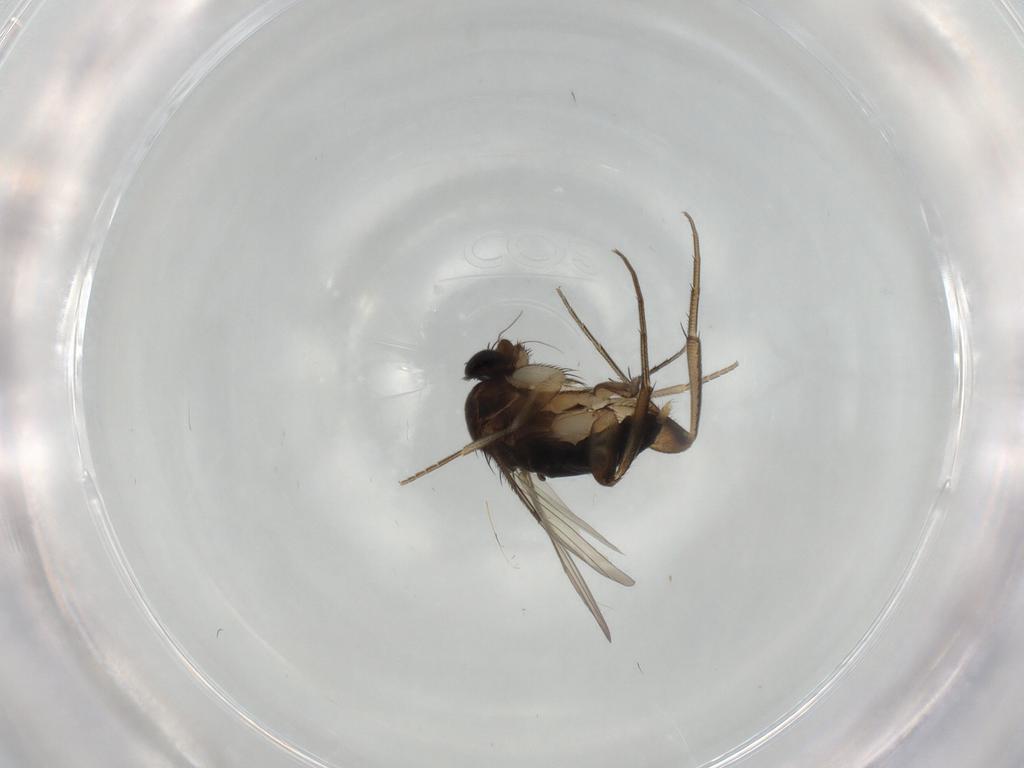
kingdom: Animalia
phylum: Arthropoda
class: Insecta
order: Diptera
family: Phoridae
